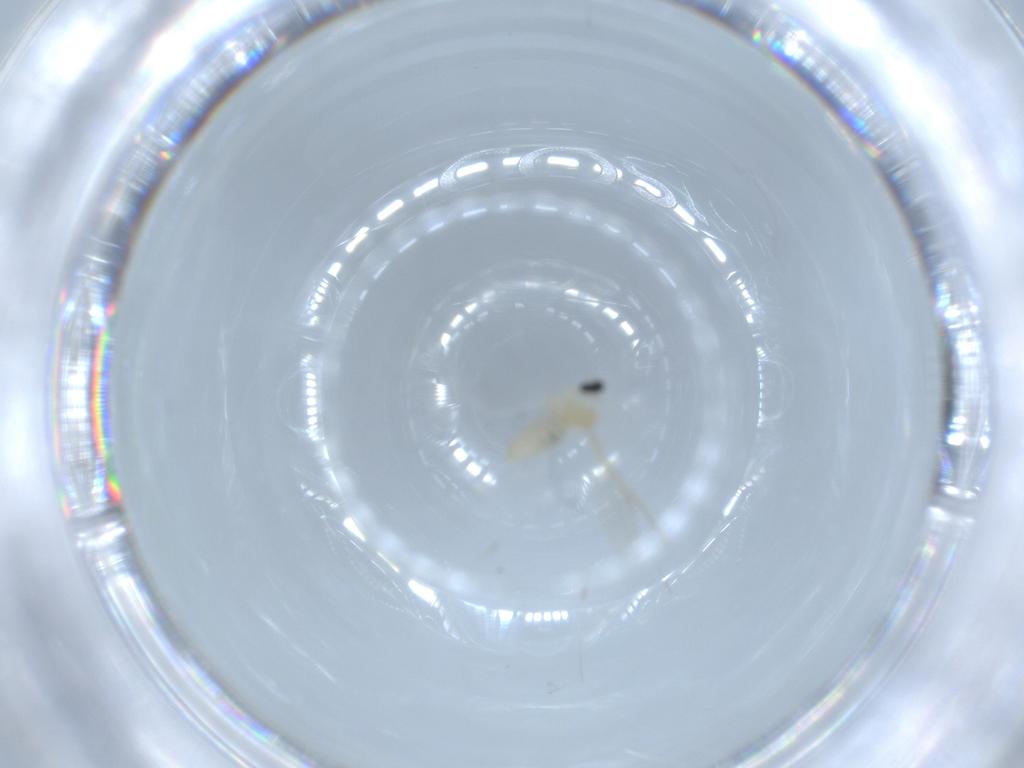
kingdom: Animalia
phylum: Arthropoda
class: Insecta
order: Diptera
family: Cecidomyiidae
